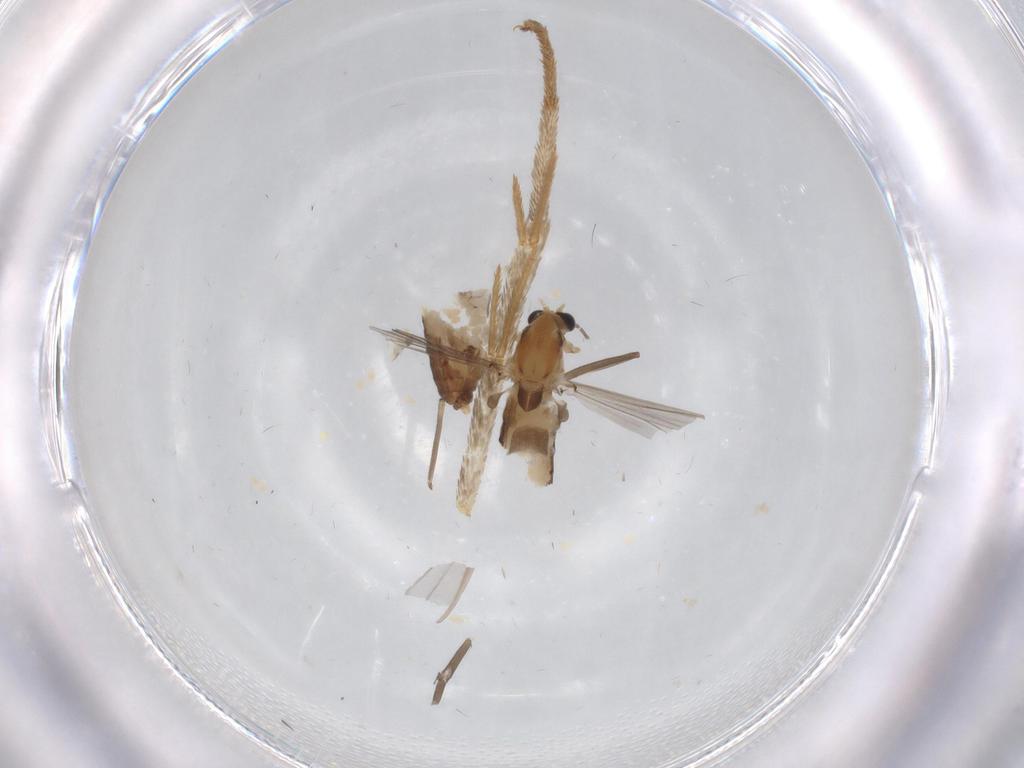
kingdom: Animalia
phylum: Arthropoda
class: Insecta
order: Diptera
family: Chironomidae
